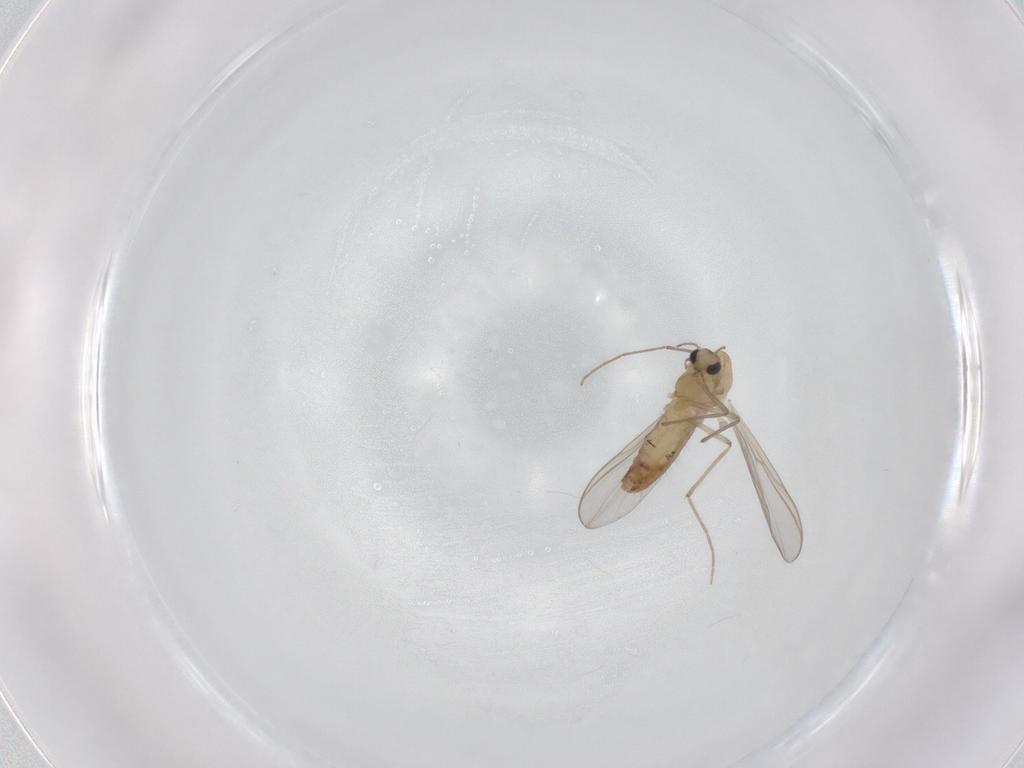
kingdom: Animalia
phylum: Arthropoda
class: Insecta
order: Diptera
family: Chironomidae
